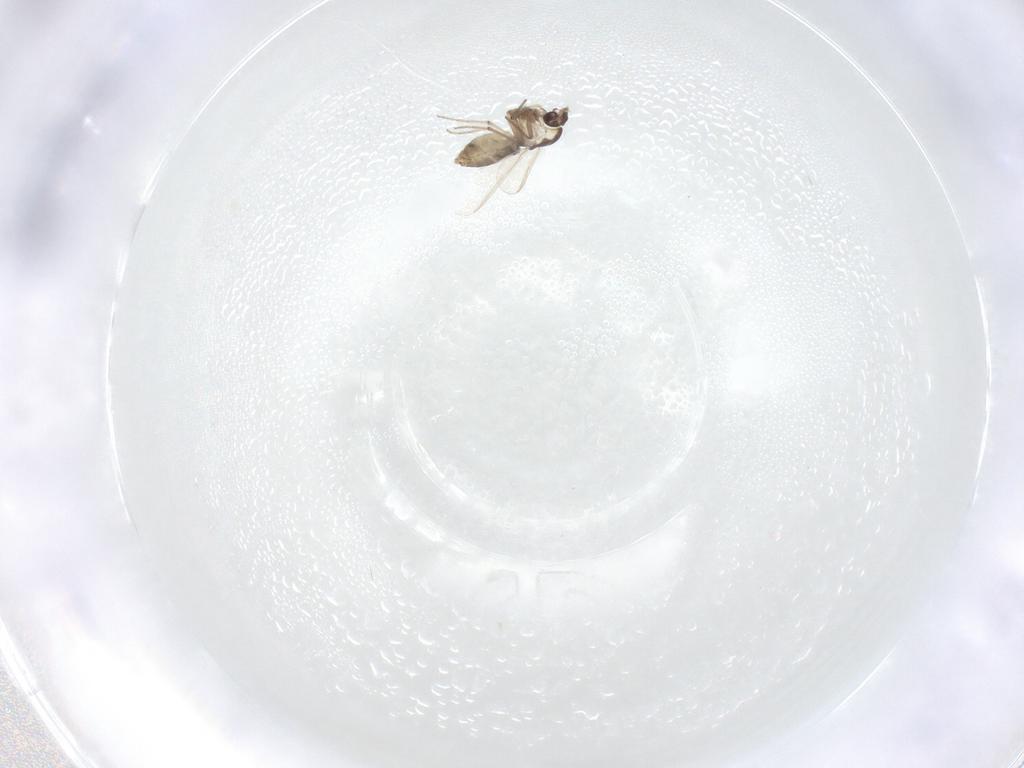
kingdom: Animalia
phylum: Arthropoda
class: Insecta
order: Diptera
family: Chironomidae
